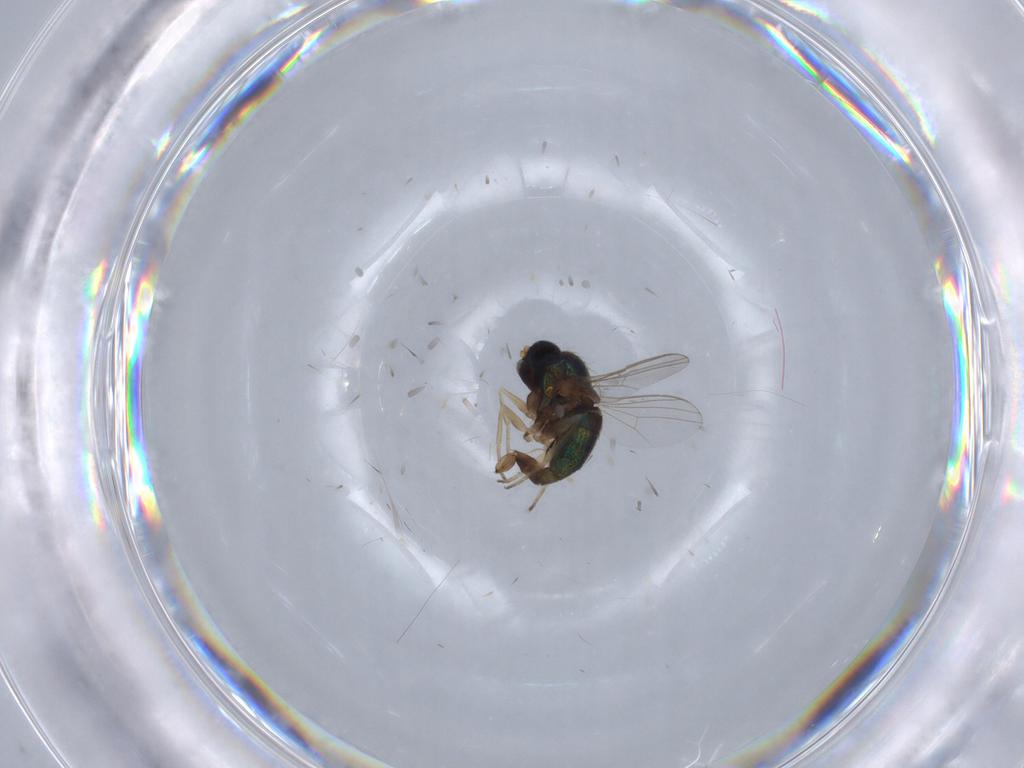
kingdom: Animalia
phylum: Arthropoda
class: Insecta
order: Diptera
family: Dolichopodidae
